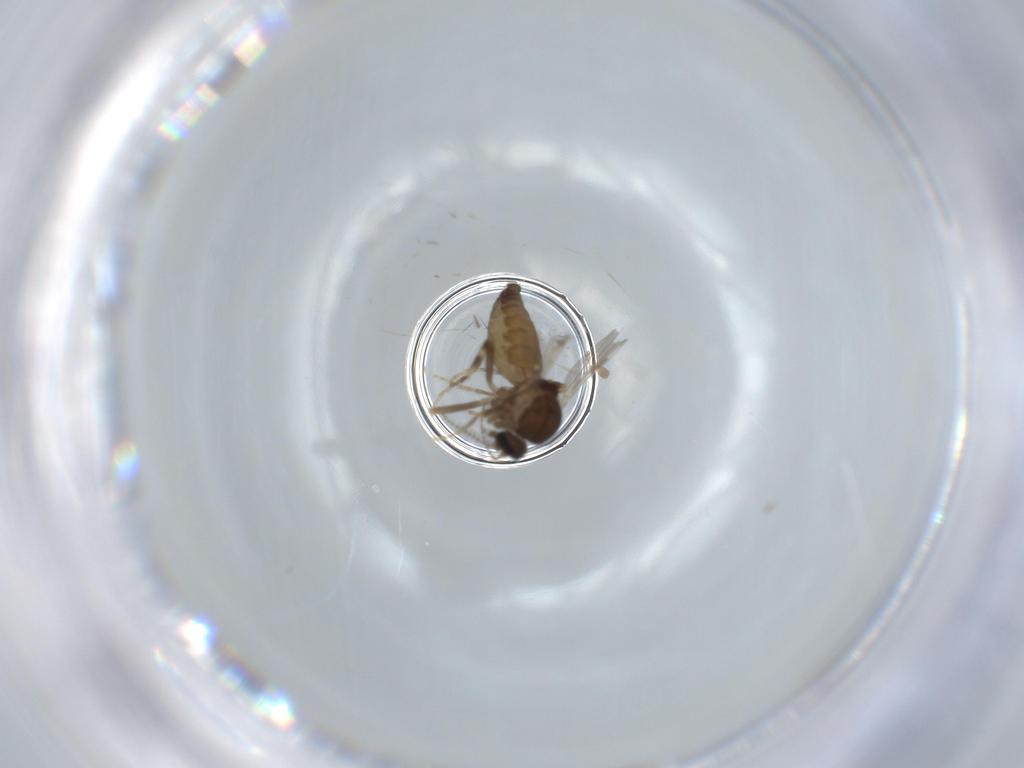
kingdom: Animalia
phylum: Arthropoda
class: Insecta
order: Diptera
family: Ceratopogonidae
